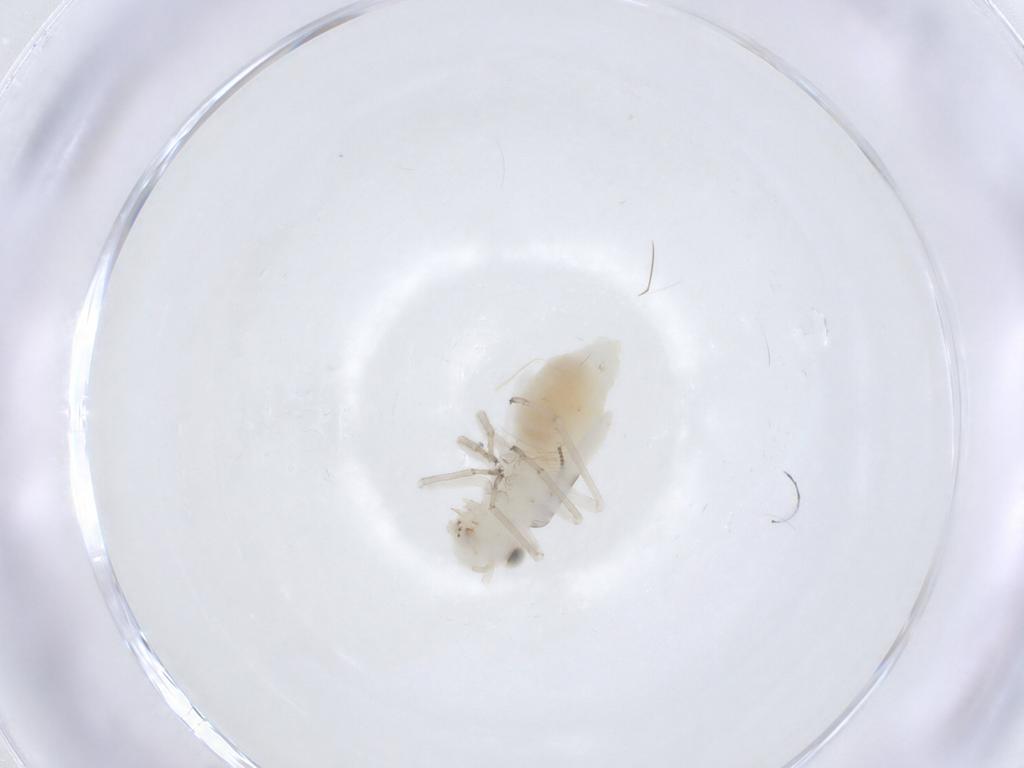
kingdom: Animalia
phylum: Arthropoda
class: Insecta
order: Psocodea
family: Caeciliusidae
